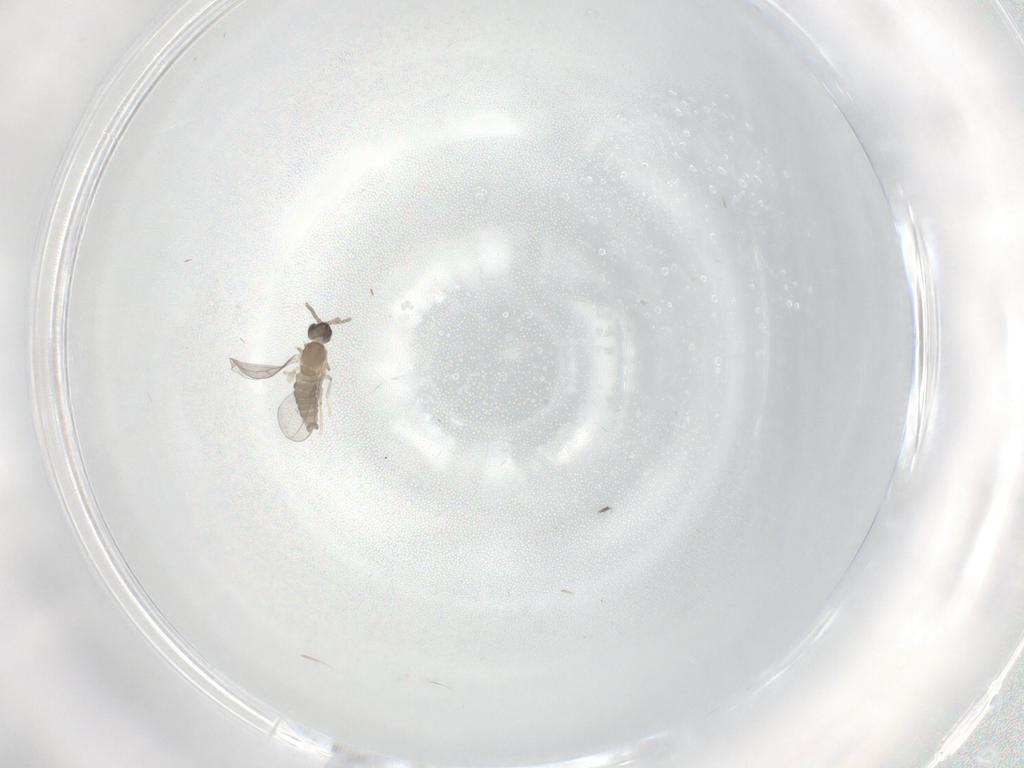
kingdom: Animalia
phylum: Arthropoda
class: Insecta
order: Diptera
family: Cecidomyiidae
